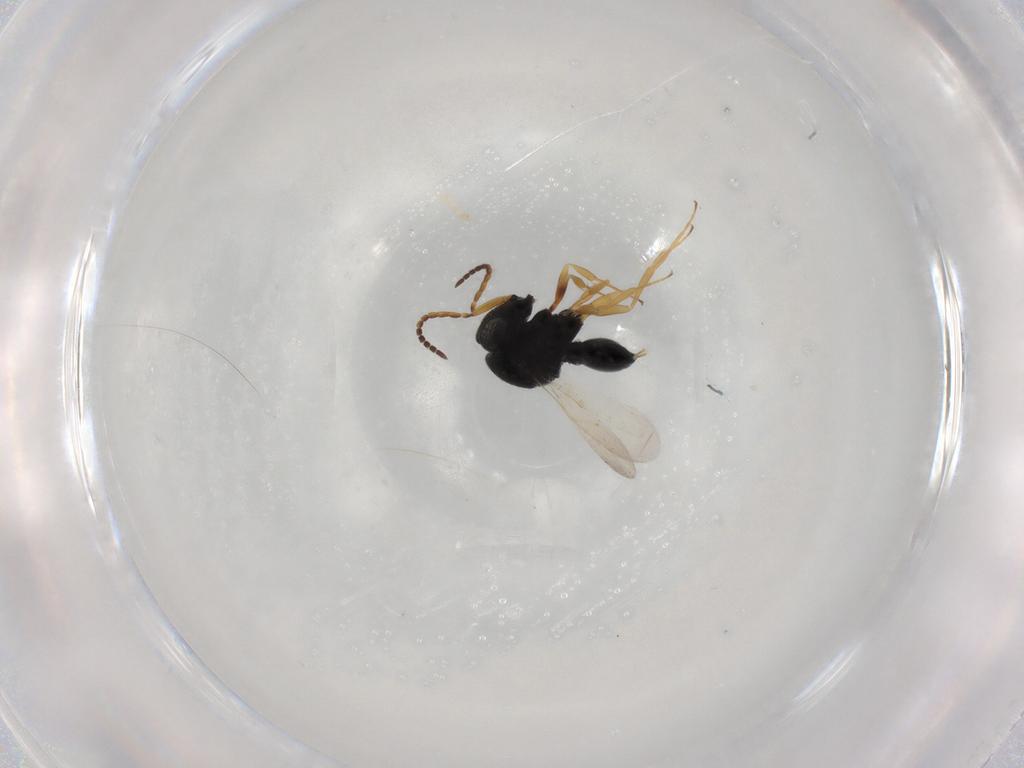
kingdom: Animalia
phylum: Arthropoda
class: Insecta
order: Hymenoptera
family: Scelionidae
